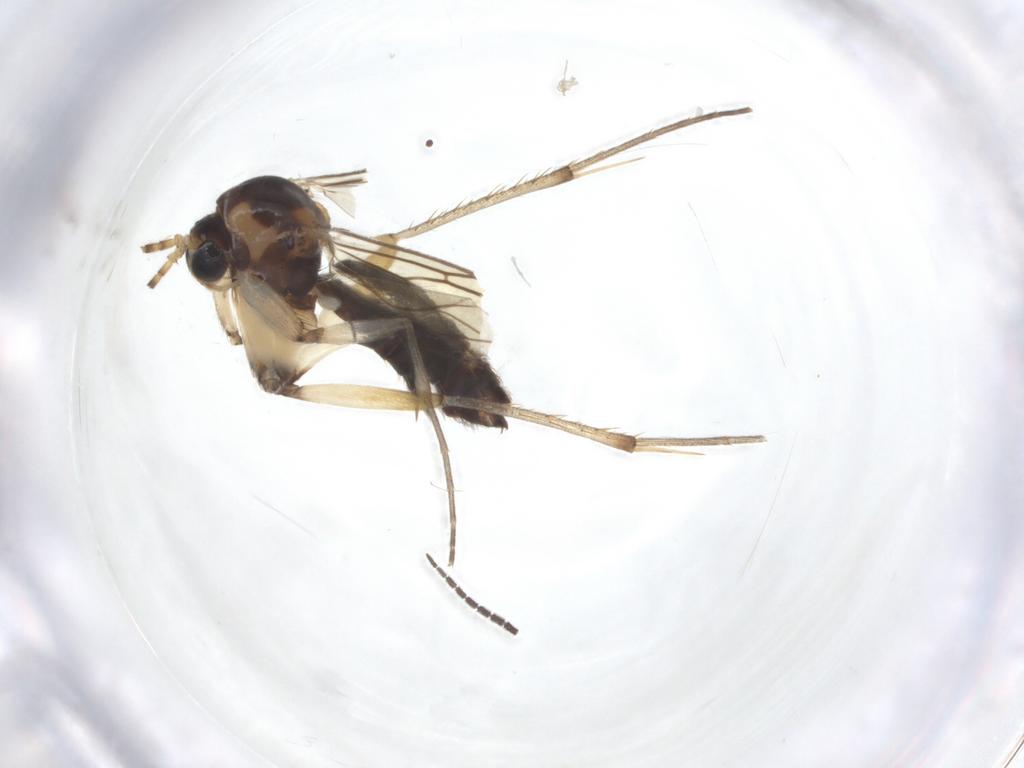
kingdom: Animalia
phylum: Arthropoda
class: Insecta
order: Diptera
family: Mycetophilidae
